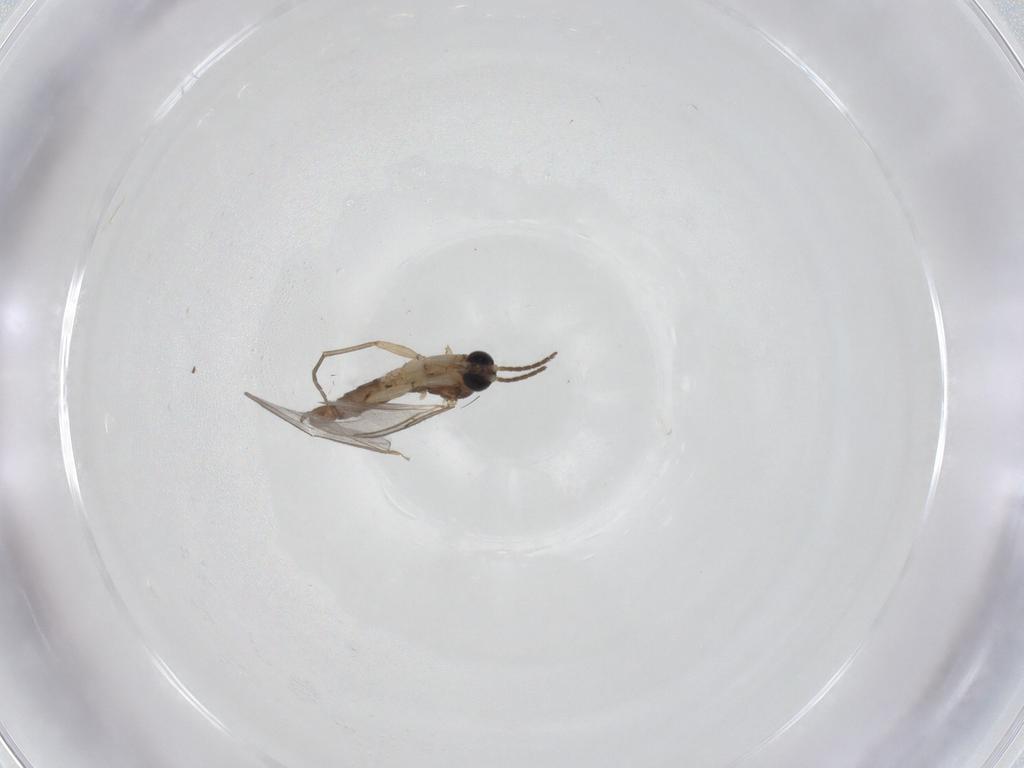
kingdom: Animalia
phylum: Arthropoda
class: Insecta
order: Diptera
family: Sciaridae
